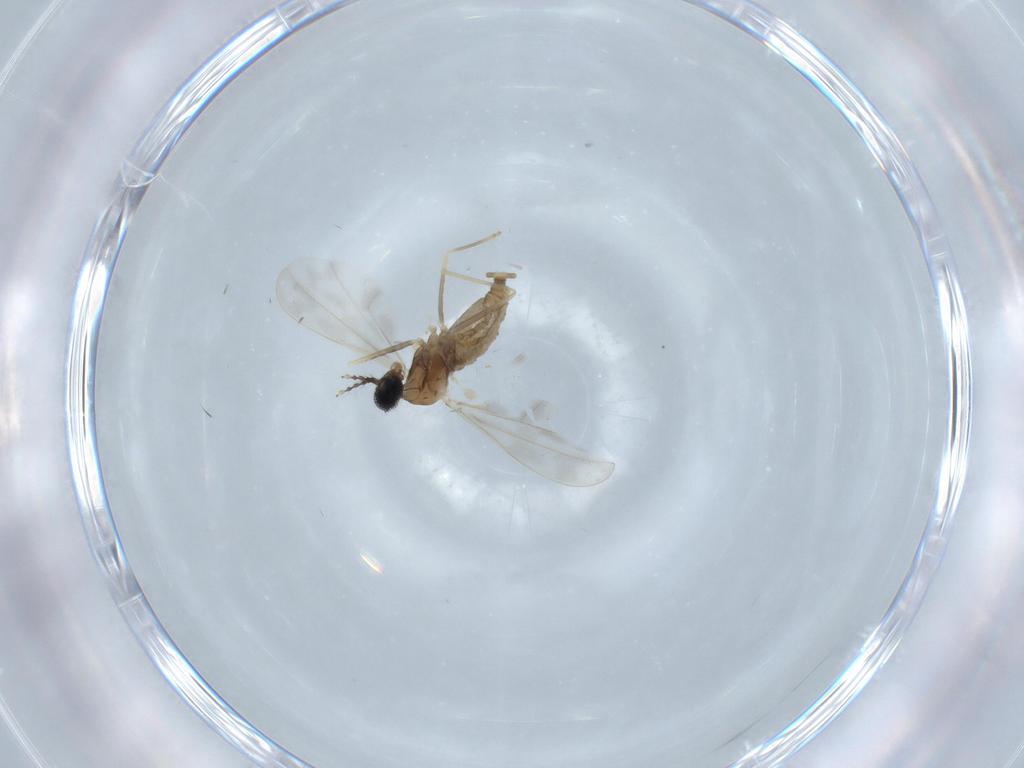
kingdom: Animalia
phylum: Arthropoda
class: Insecta
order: Diptera
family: Cecidomyiidae
